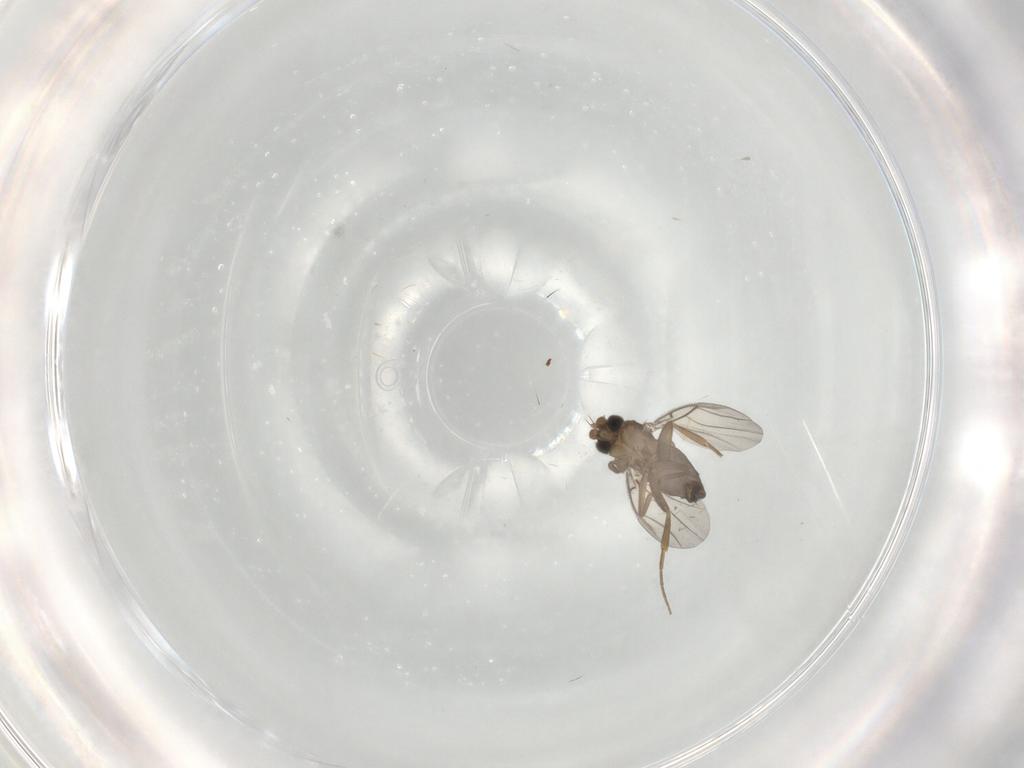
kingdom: Animalia
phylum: Arthropoda
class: Insecta
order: Diptera
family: Phoridae
